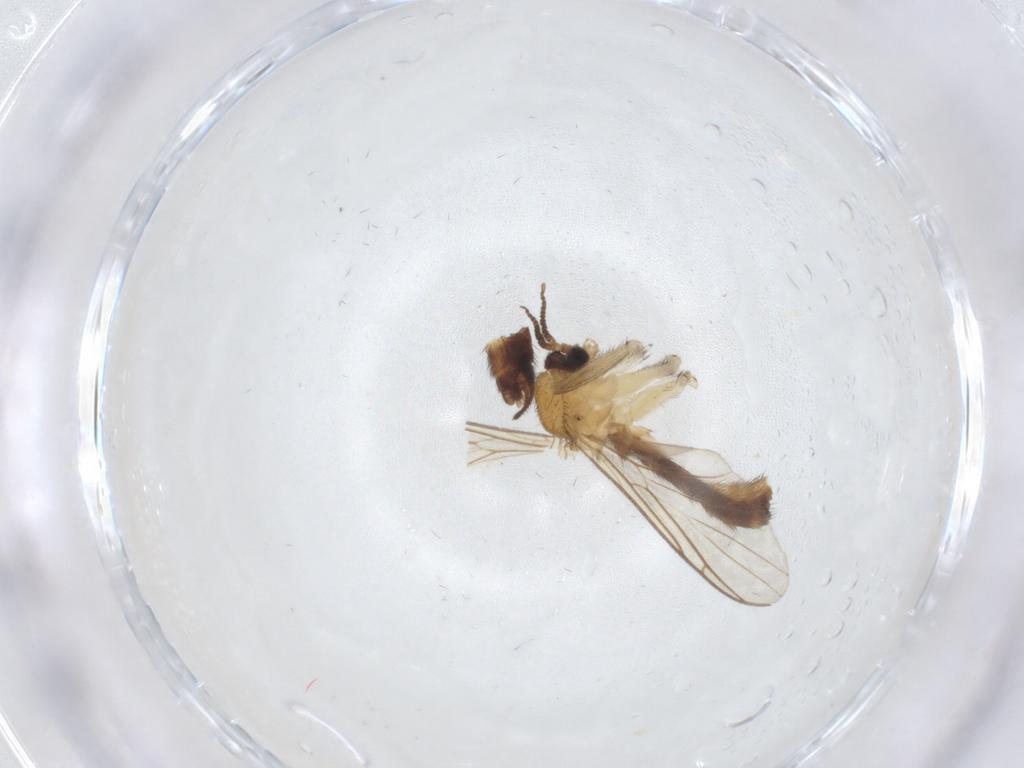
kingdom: Animalia
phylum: Arthropoda
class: Insecta
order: Diptera
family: Keroplatidae
